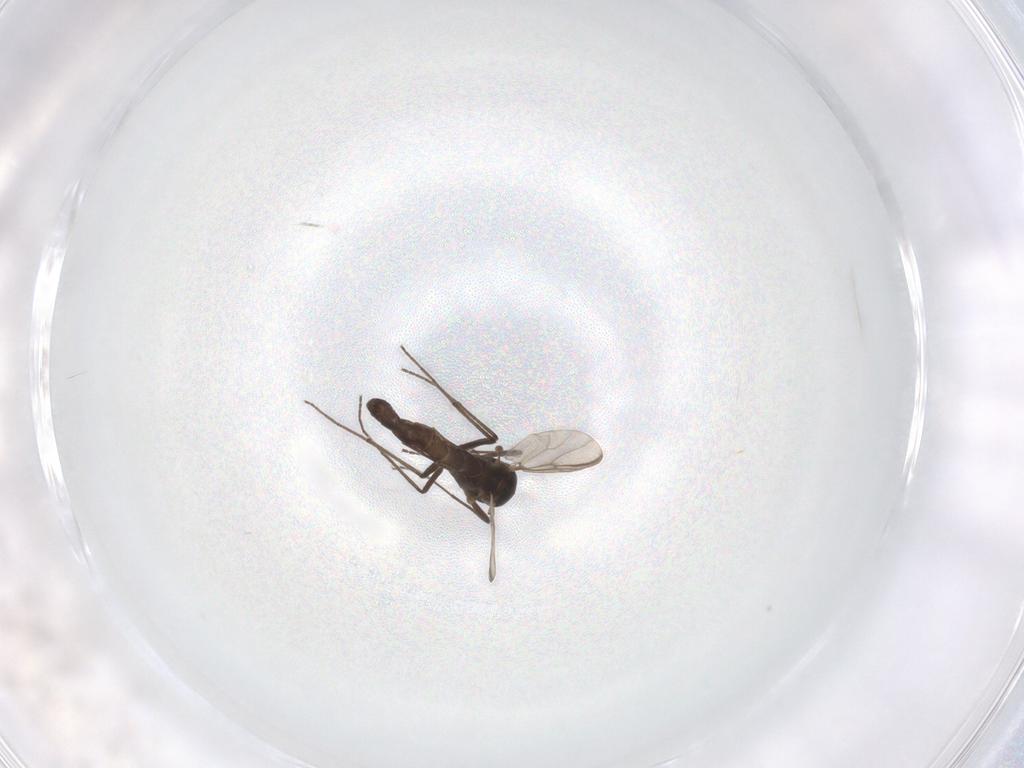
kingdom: Animalia
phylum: Arthropoda
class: Insecta
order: Diptera
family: Chironomidae
